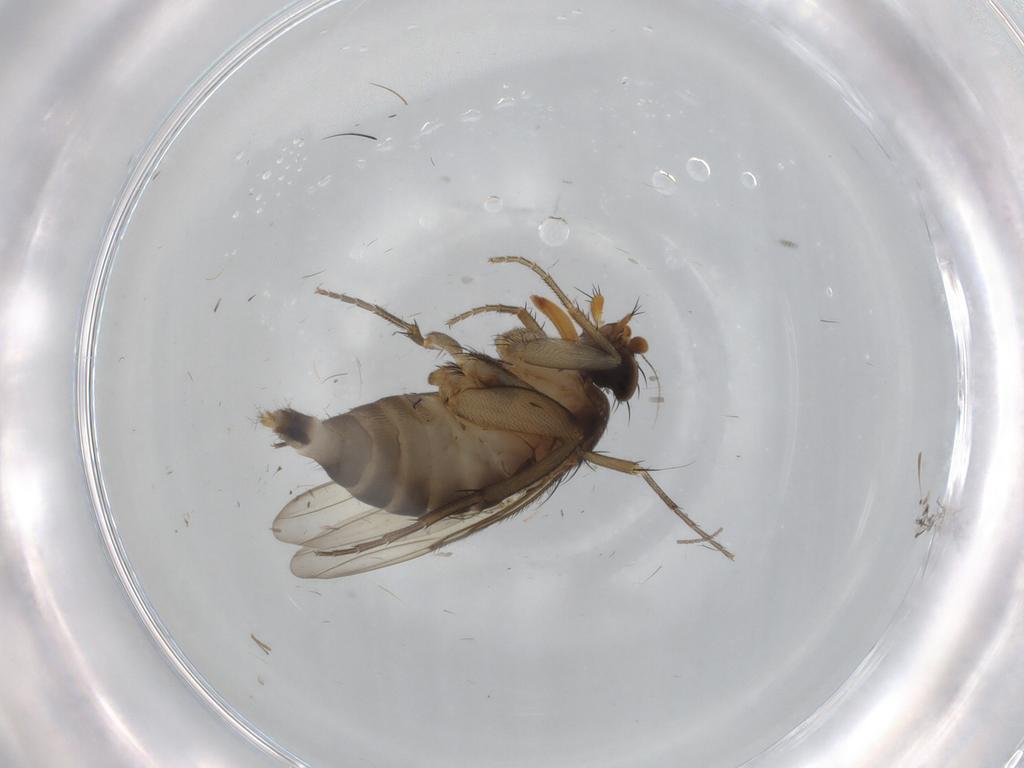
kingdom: Animalia
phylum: Arthropoda
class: Insecta
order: Diptera
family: Phoridae
